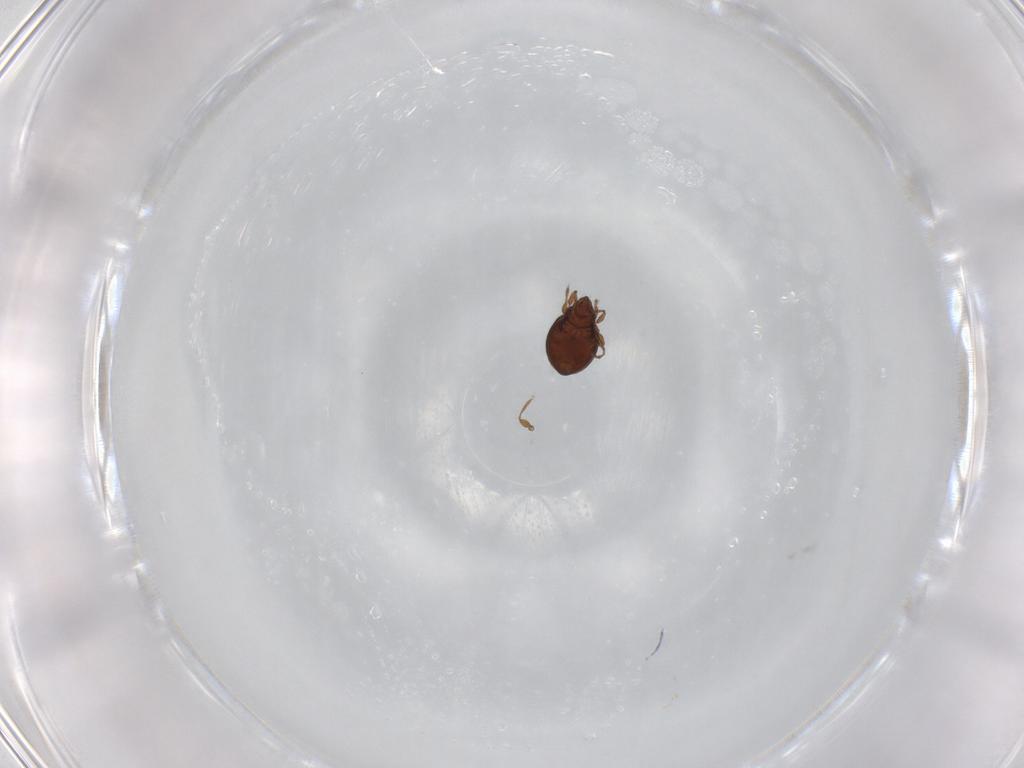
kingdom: Animalia
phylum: Arthropoda
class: Arachnida
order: Sarcoptiformes
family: Oribatulidae
